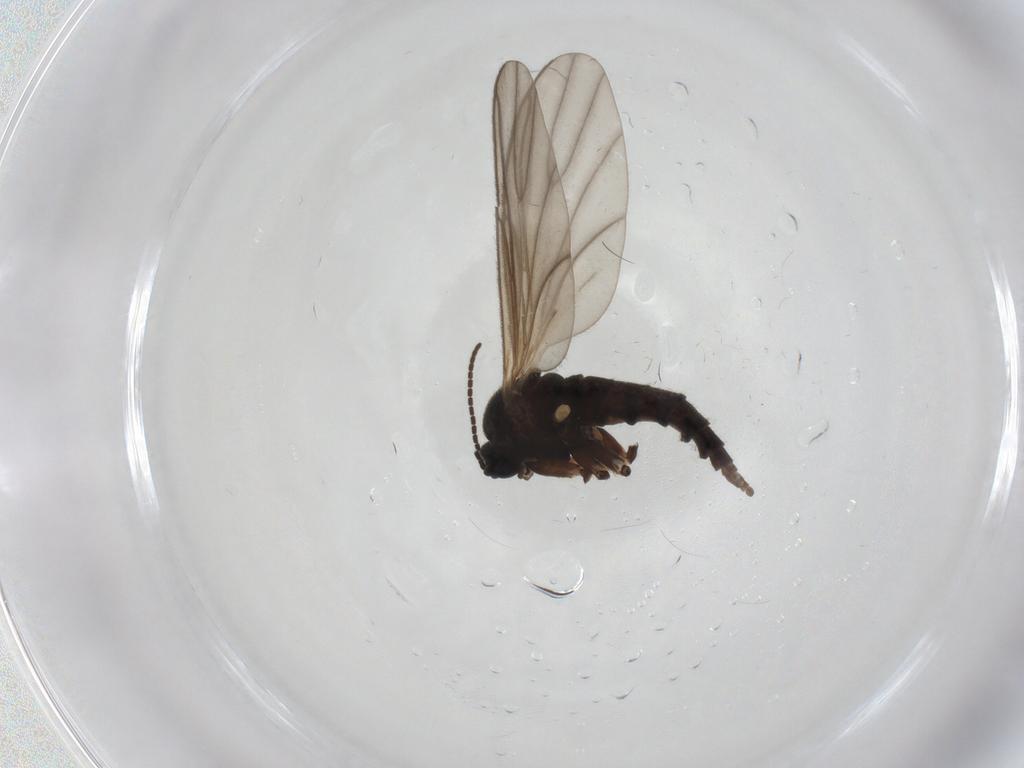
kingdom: Animalia
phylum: Arthropoda
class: Insecta
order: Diptera
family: Sciaridae
